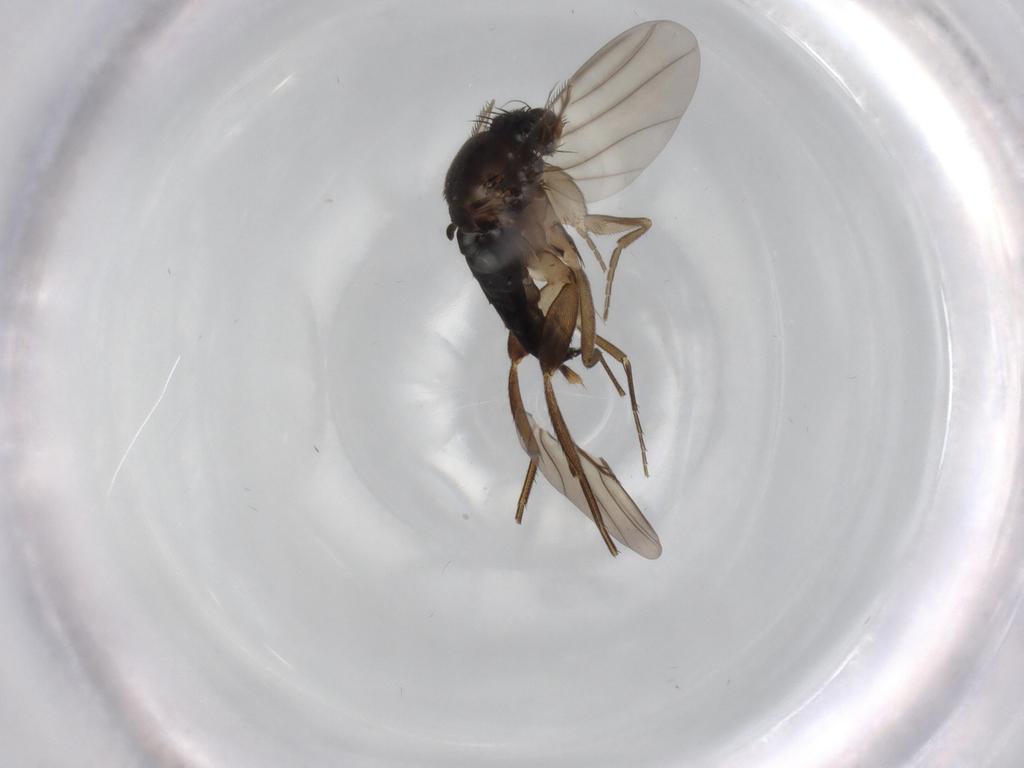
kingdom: Animalia
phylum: Arthropoda
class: Insecta
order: Diptera
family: Phoridae
